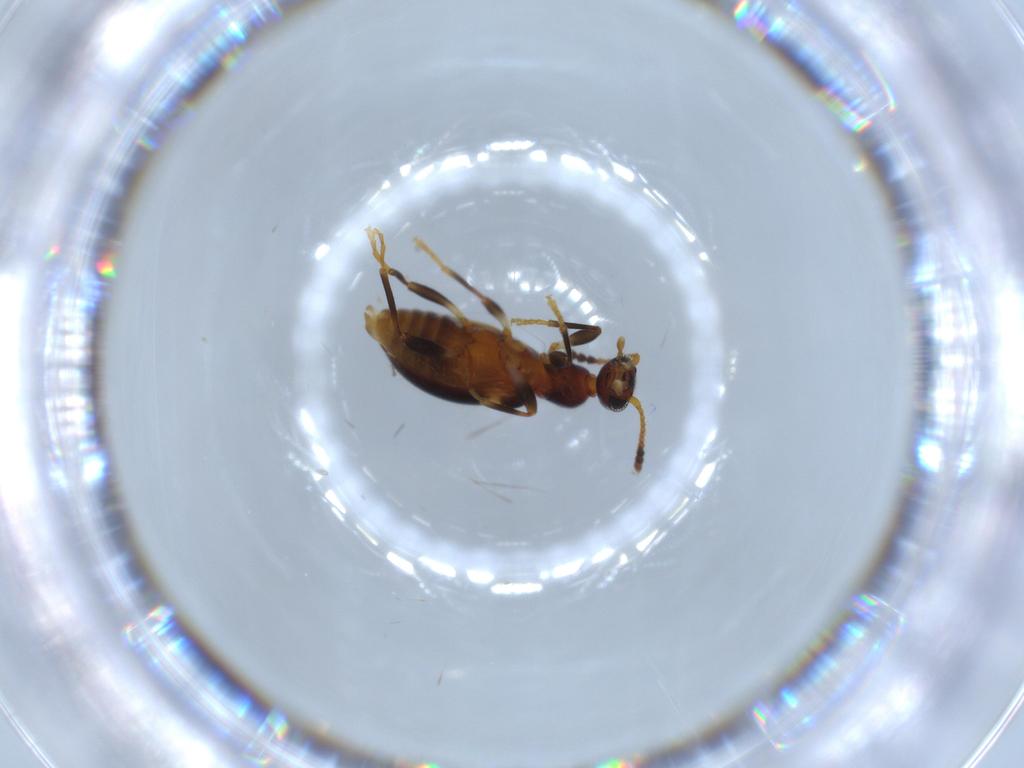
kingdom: Animalia
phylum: Arthropoda
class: Insecta
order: Coleoptera
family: Anthicidae
